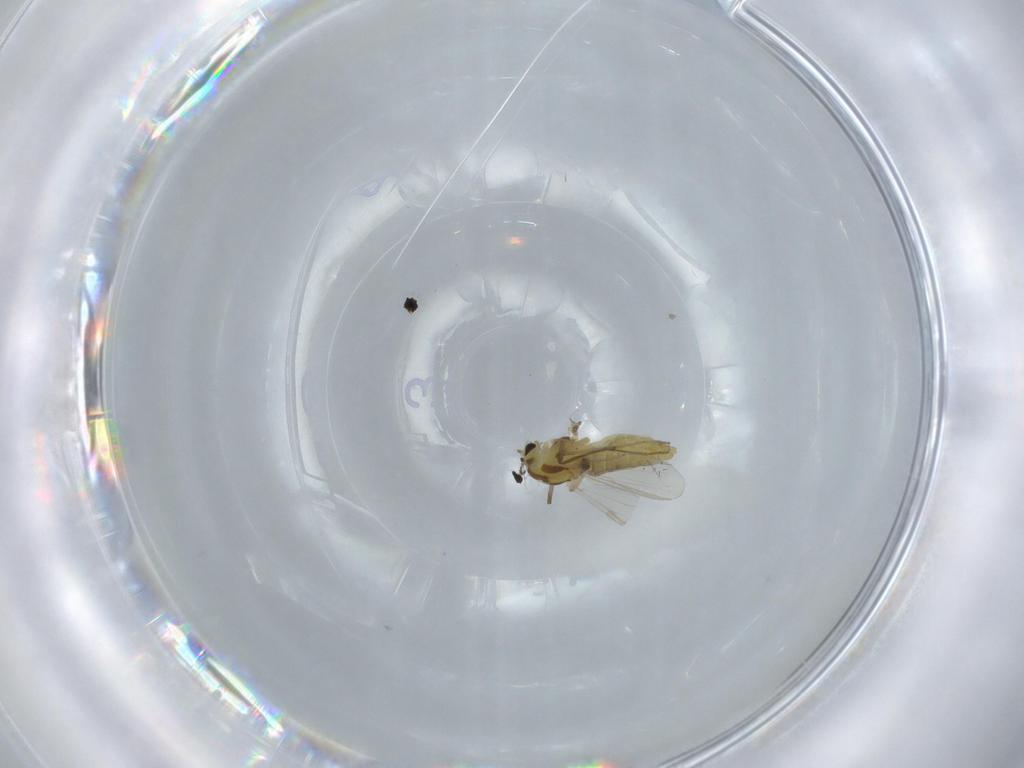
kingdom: Animalia
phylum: Arthropoda
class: Insecta
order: Diptera
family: Chironomidae
